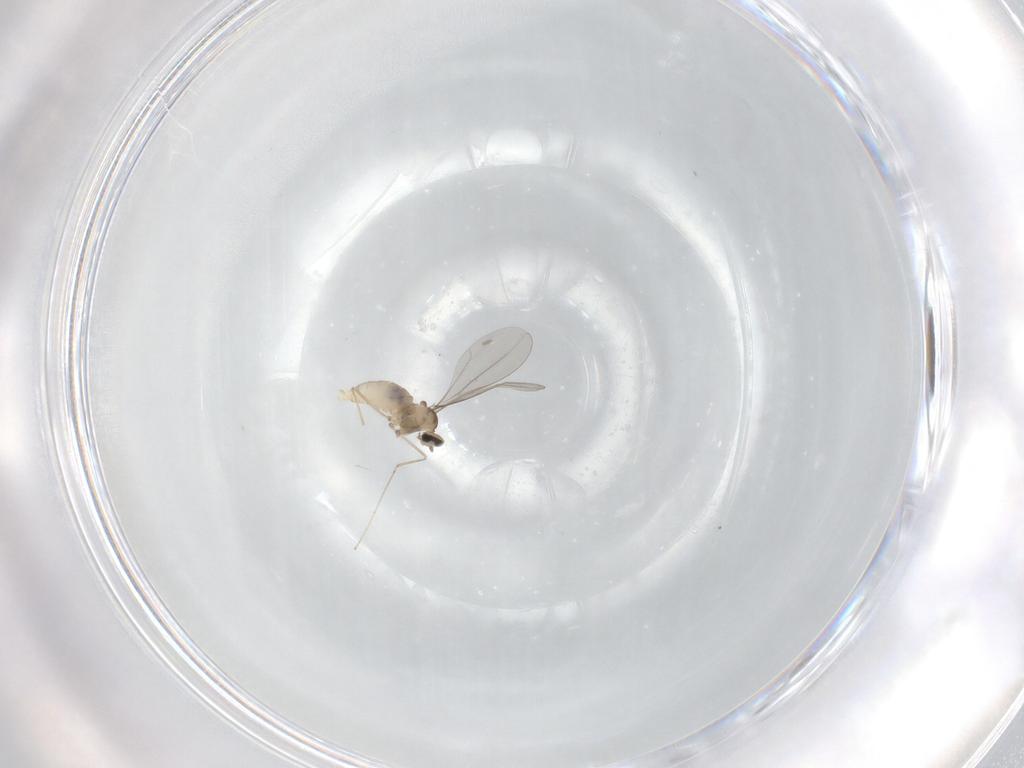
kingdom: Animalia
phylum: Arthropoda
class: Insecta
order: Diptera
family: Cecidomyiidae
